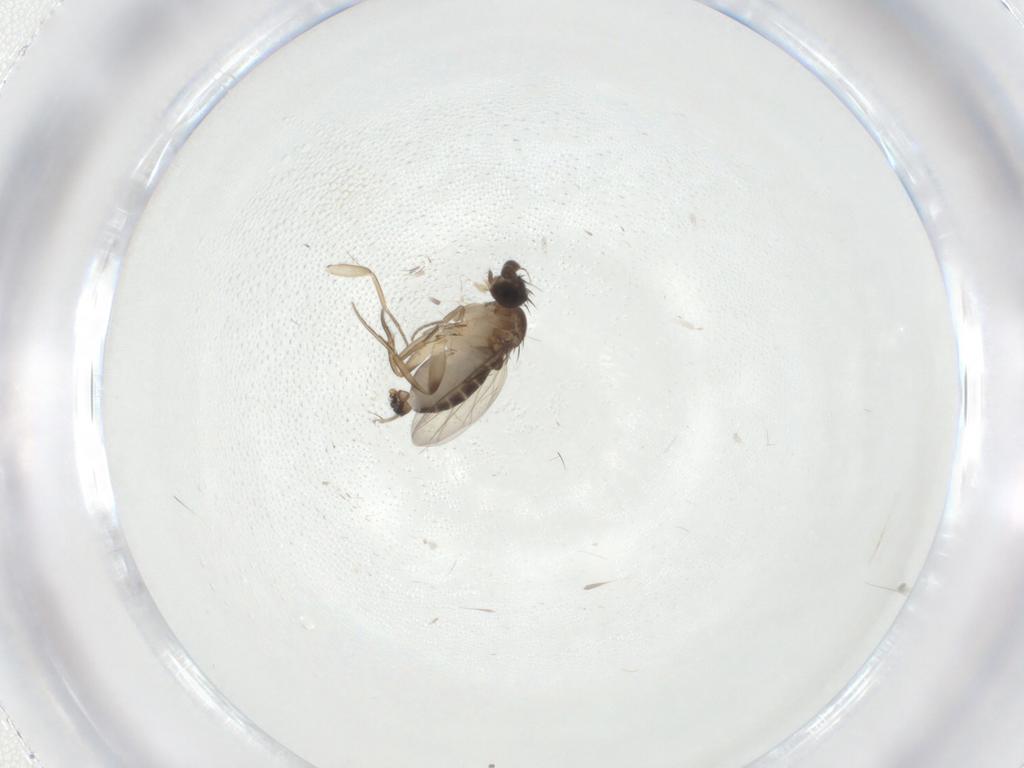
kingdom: Animalia
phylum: Arthropoda
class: Insecta
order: Diptera
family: Phoridae
